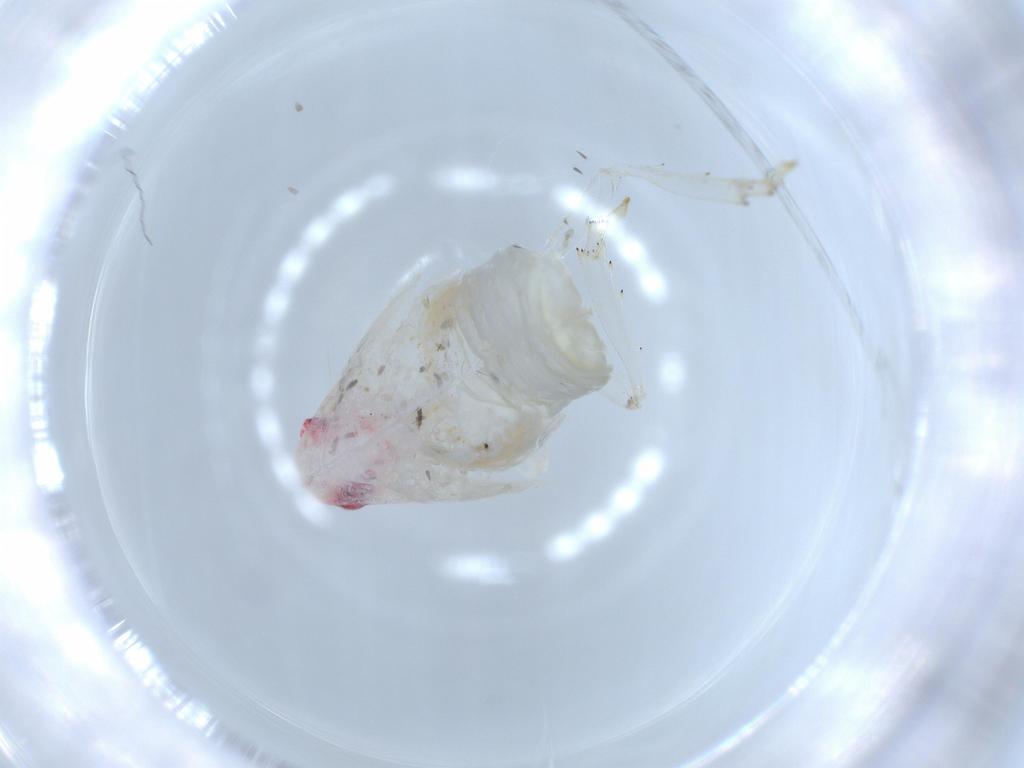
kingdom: Animalia
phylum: Arthropoda
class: Insecta
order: Hemiptera
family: Flatidae
